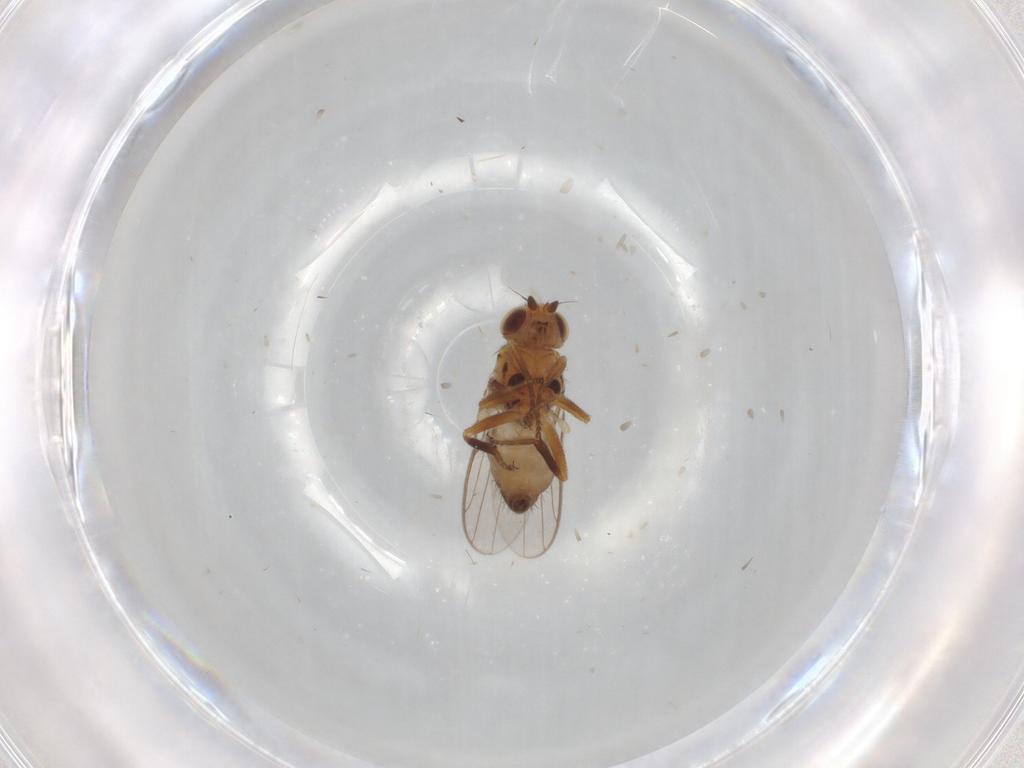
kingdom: Animalia
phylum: Arthropoda
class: Insecta
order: Diptera
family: Chloropidae
